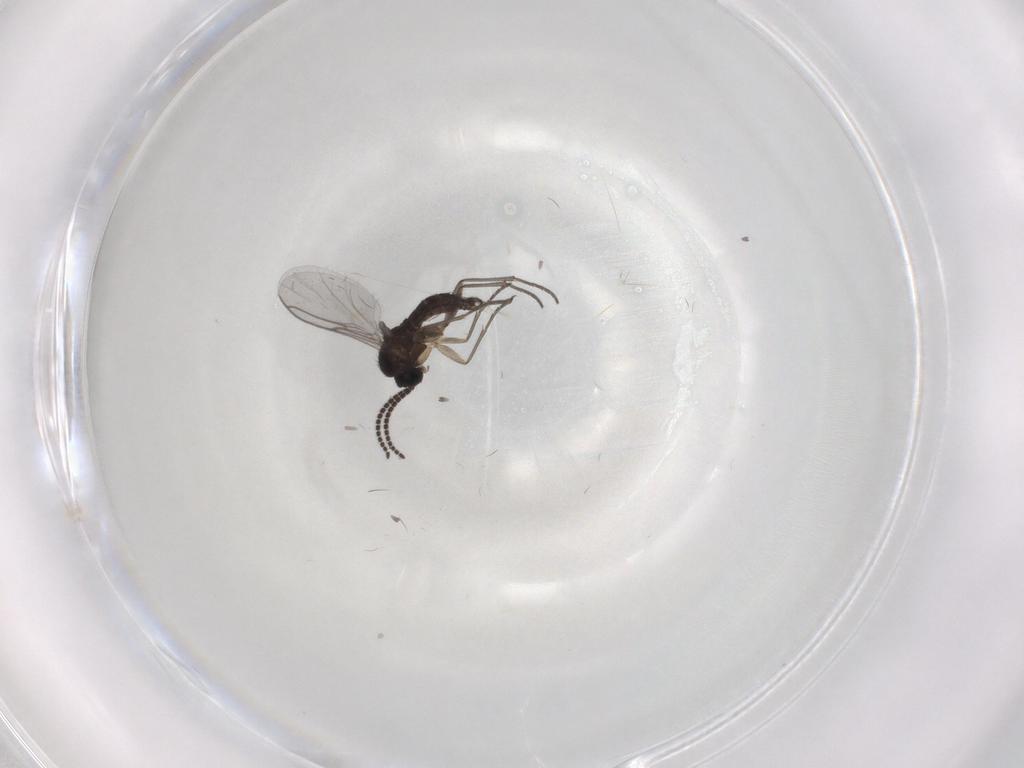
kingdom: Animalia
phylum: Arthropoda
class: Insecta
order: Diptera
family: Sciaridae
